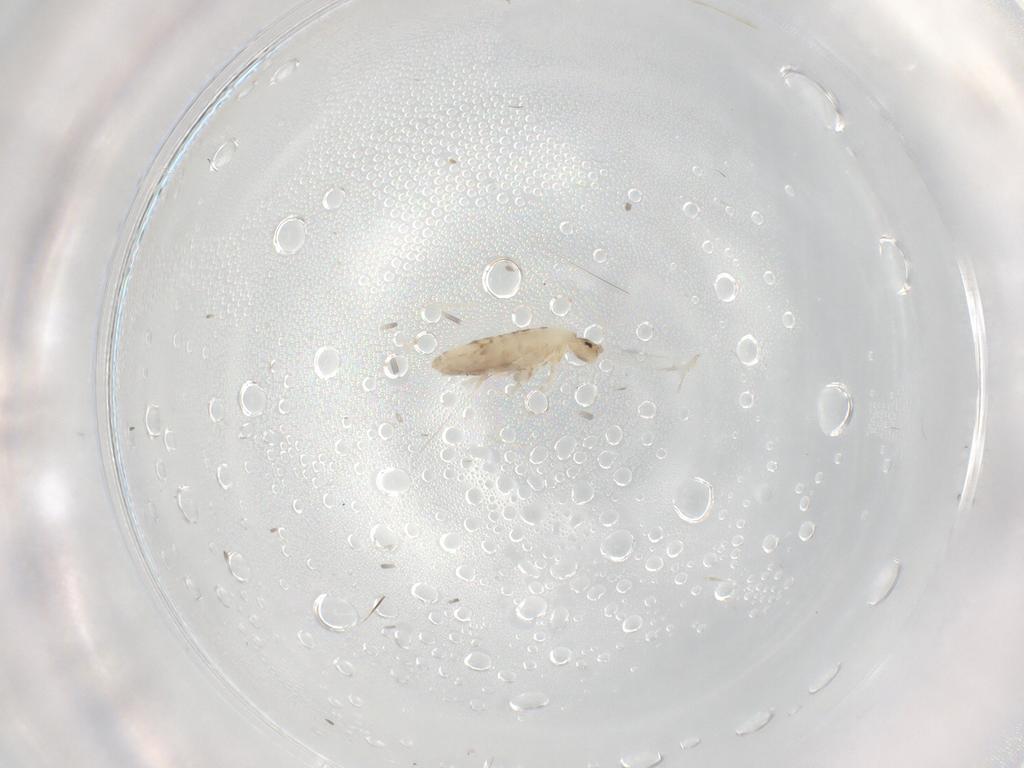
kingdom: Animalia
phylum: Arthropoda
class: Collembola
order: Entomobryomorpha
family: Entomobryidae
